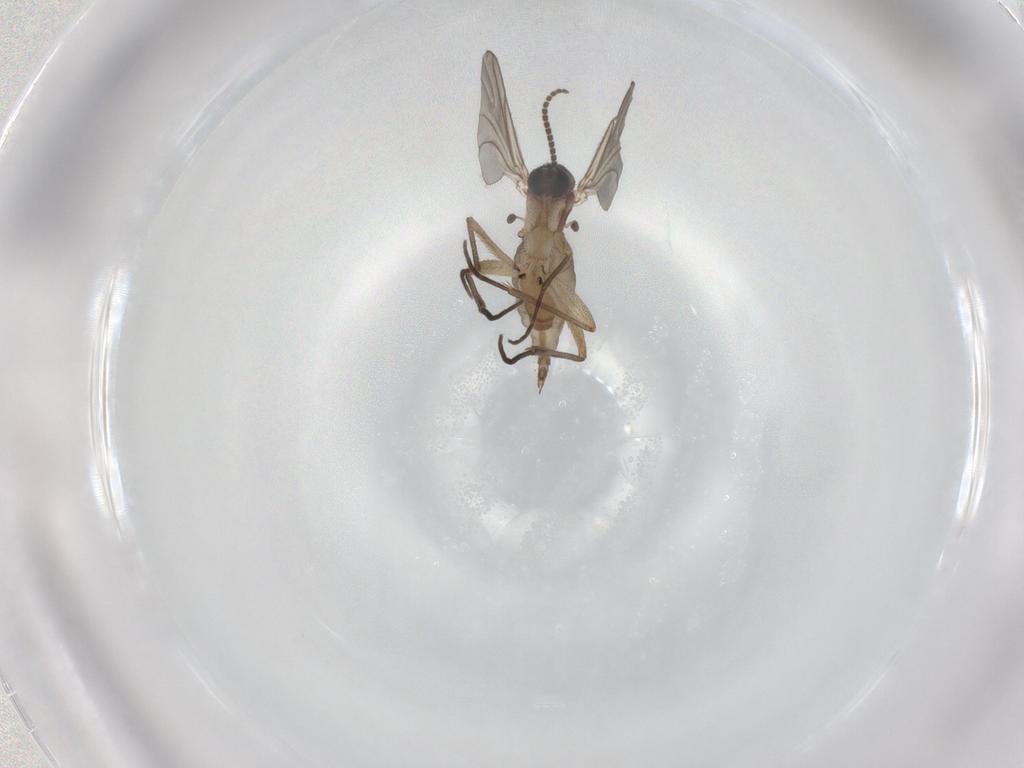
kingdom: Animalia
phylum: Arthropoda
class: Insecta
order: Diptera
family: Sciaridae
